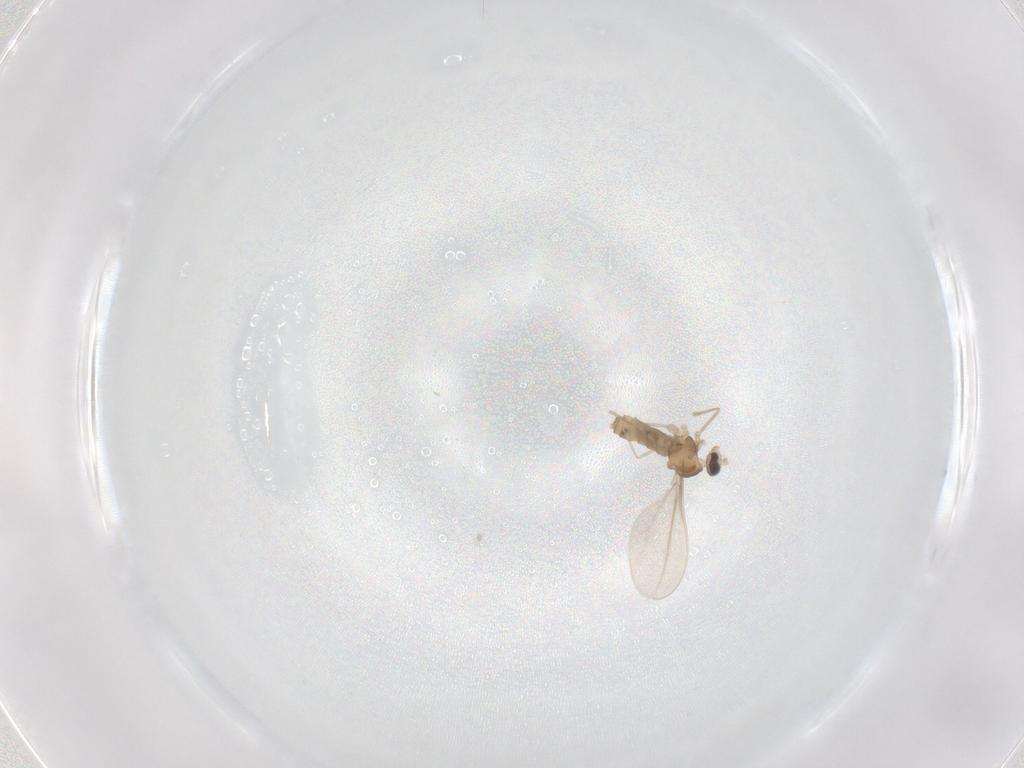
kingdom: Animalia
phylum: Arthropoda
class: Insecta
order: Diptera
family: Cecidomyiidae
